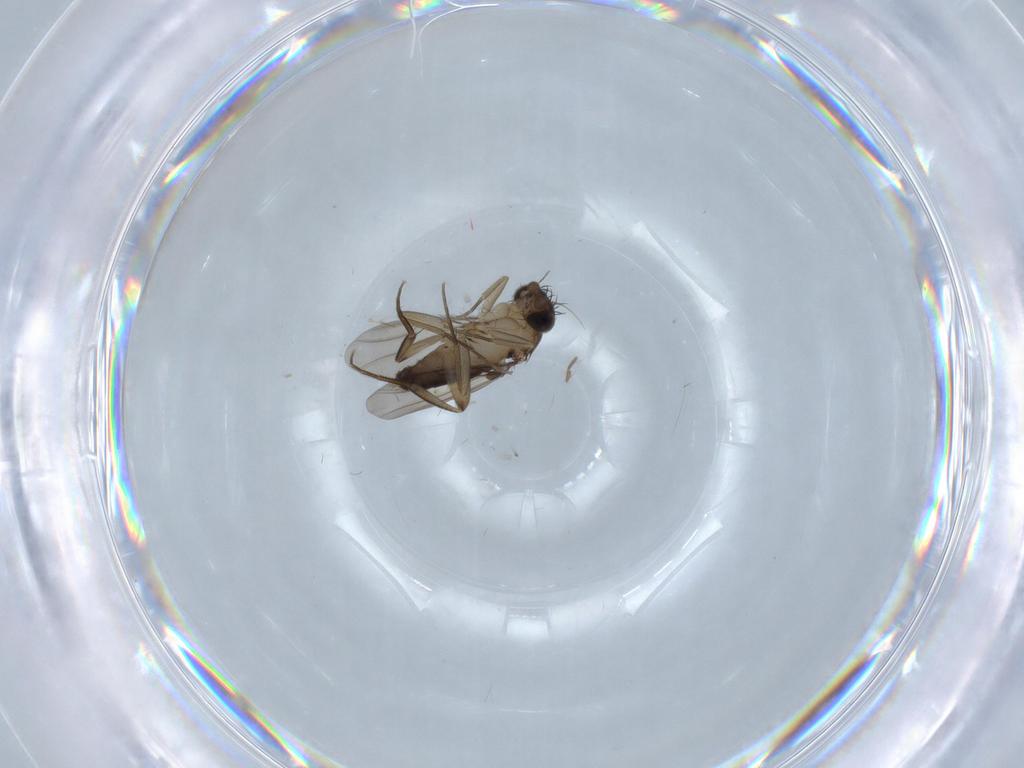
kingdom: Animalia
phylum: Arthropoda
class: Insecta
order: Diptera
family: Phoridae
